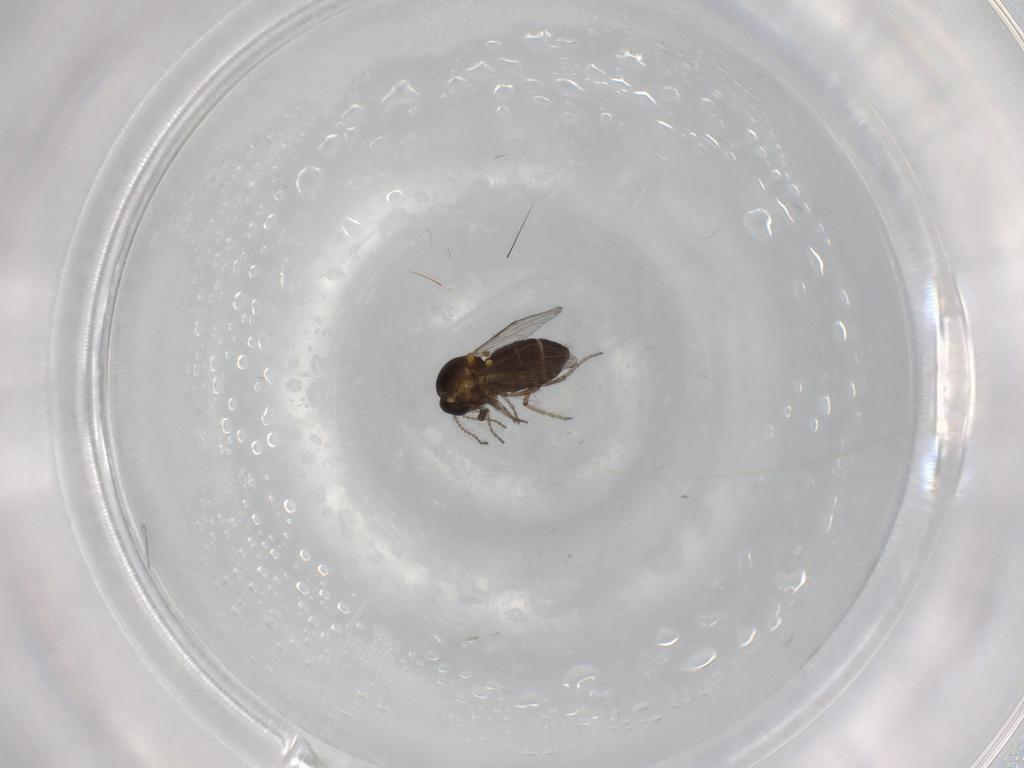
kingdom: Animalia
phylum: Arthropoda
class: Insecta
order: Diptera
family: Ceratopogonidae
